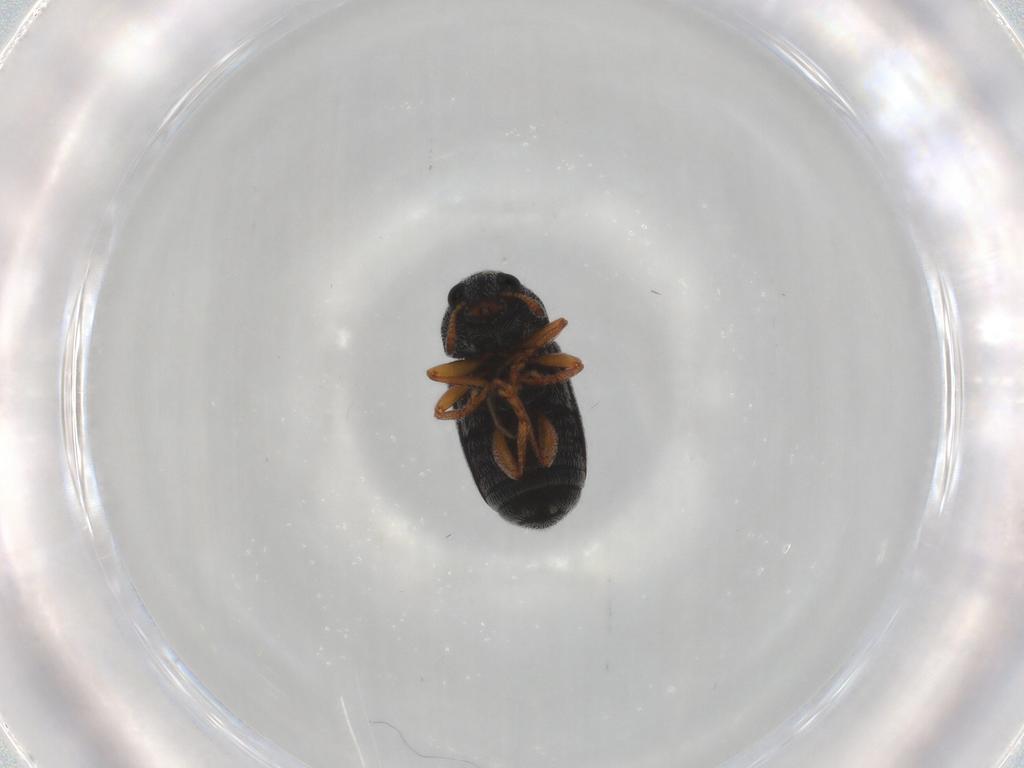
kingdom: Animalia
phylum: Arthropoda
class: Insecta
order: Coleoptera
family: Anthribidae
